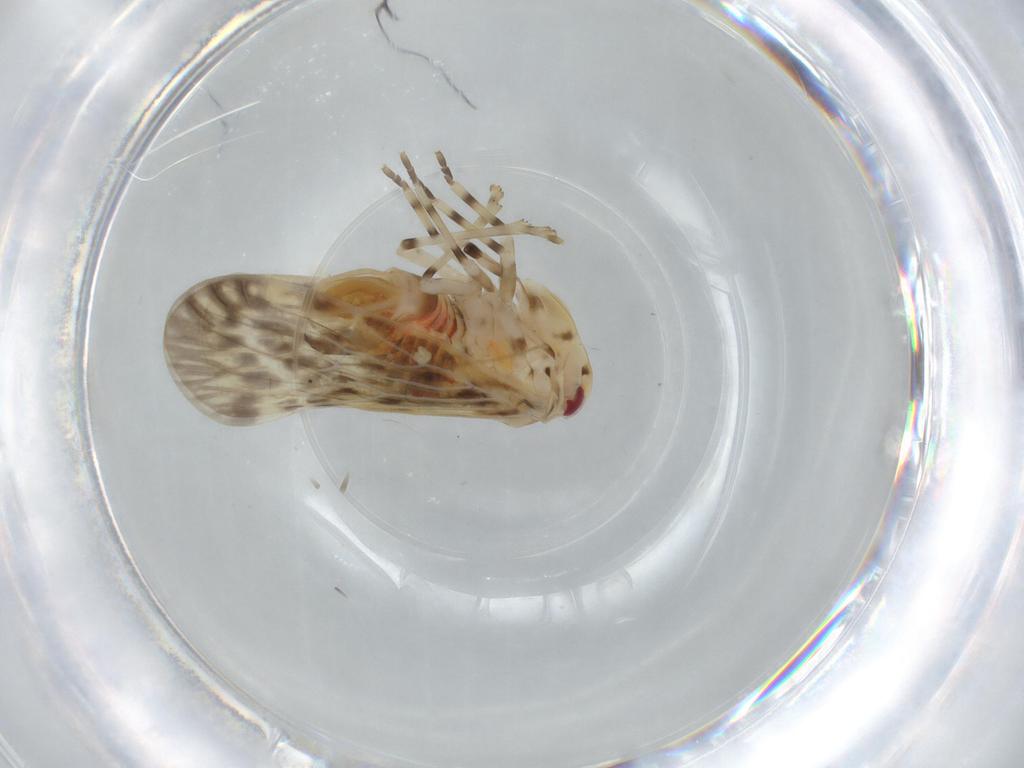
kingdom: Animalia
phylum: Arthropoda
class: Insecta
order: Hemiptera
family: Derbidae
